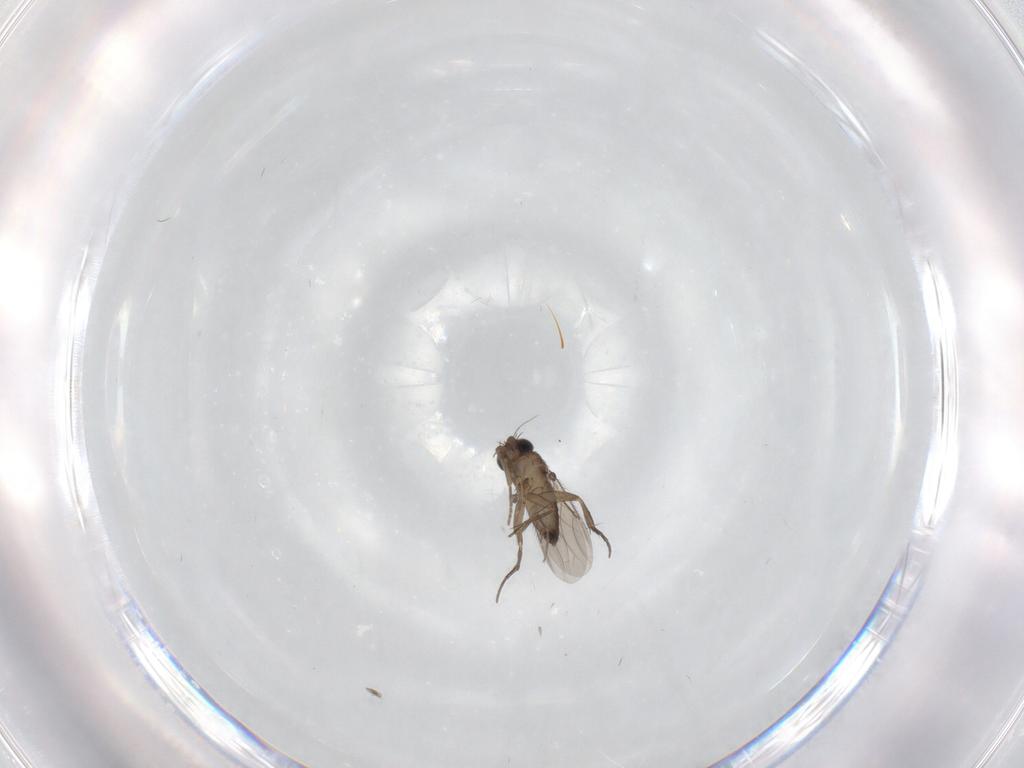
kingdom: Animalia
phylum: Arthropoda
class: Insecta
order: Diptera
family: Phoridae
